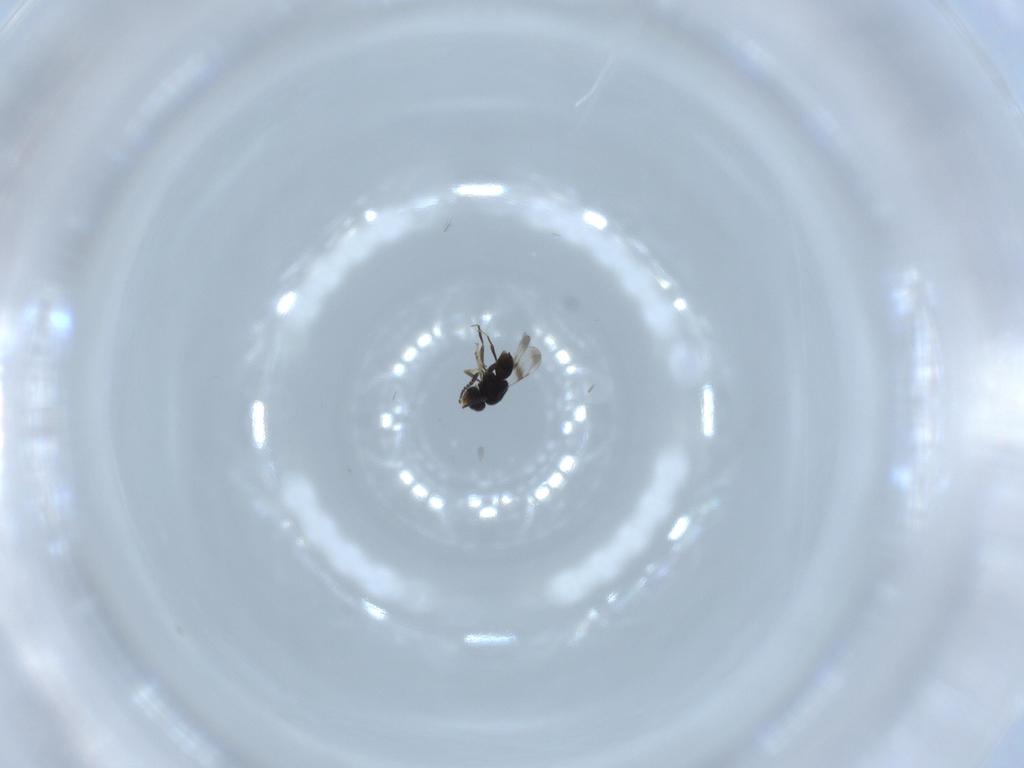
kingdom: Animalia
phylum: Arthropoda
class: Insecta
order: Hymenoptera
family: Ceraphronidae
